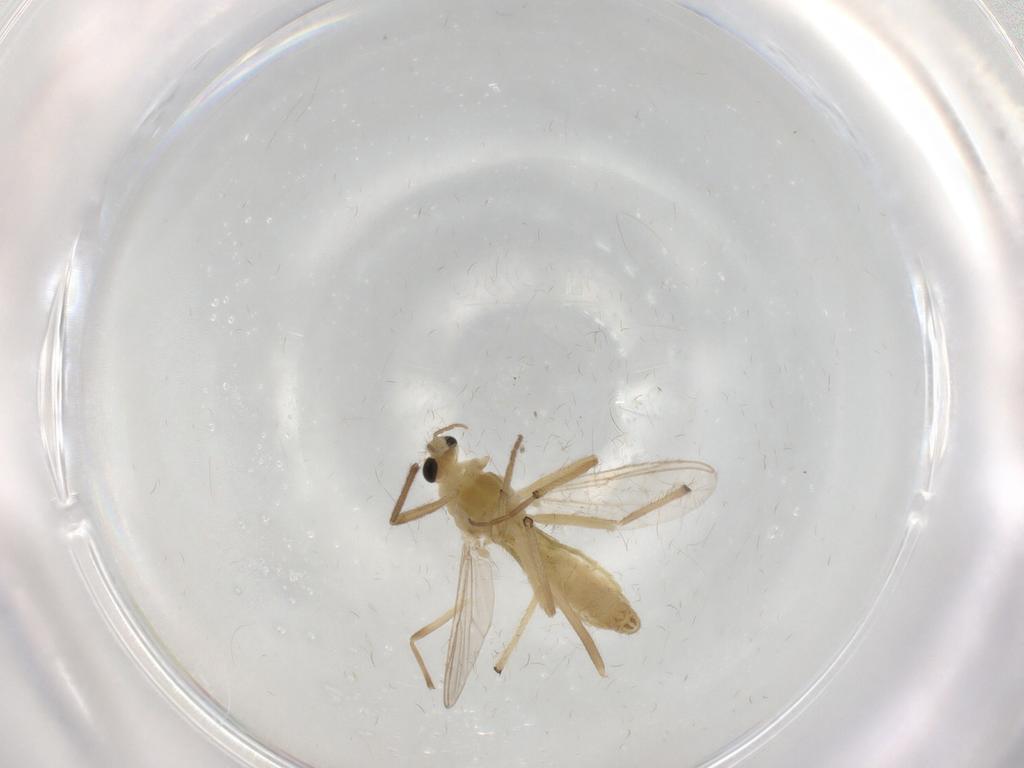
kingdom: Animalia
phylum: Arthropoda
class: Insecta
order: Diptera
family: Chironomidae
